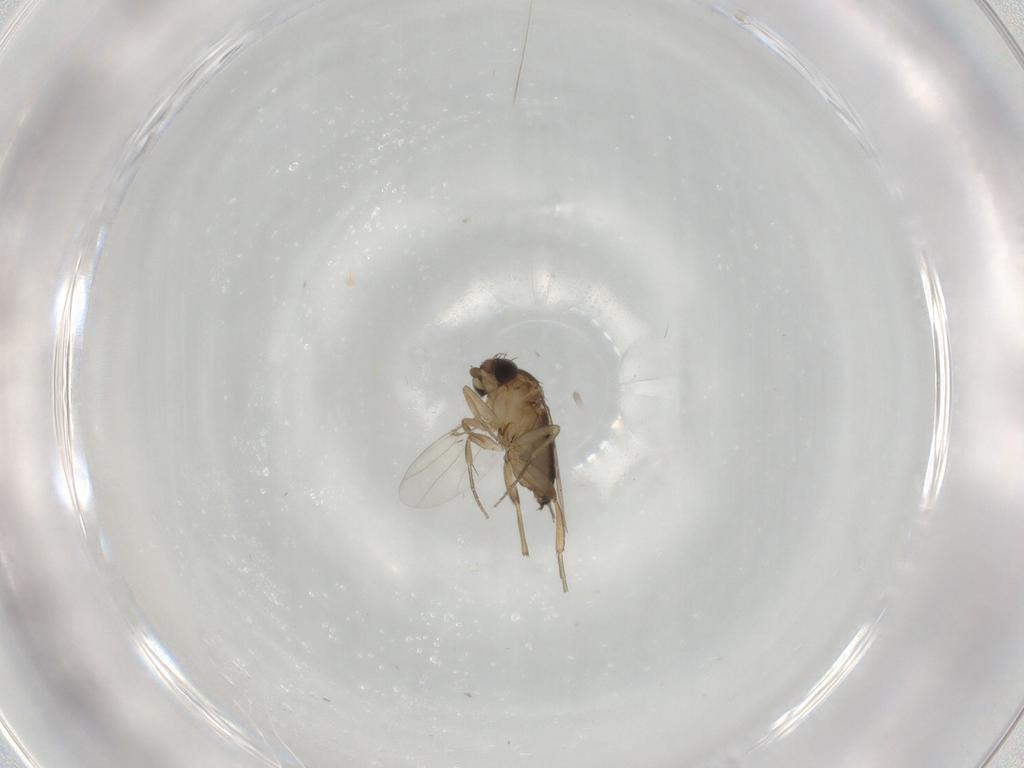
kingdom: Animalia
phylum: Arthropoda
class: Insecta
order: Diptera
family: Phoridae
